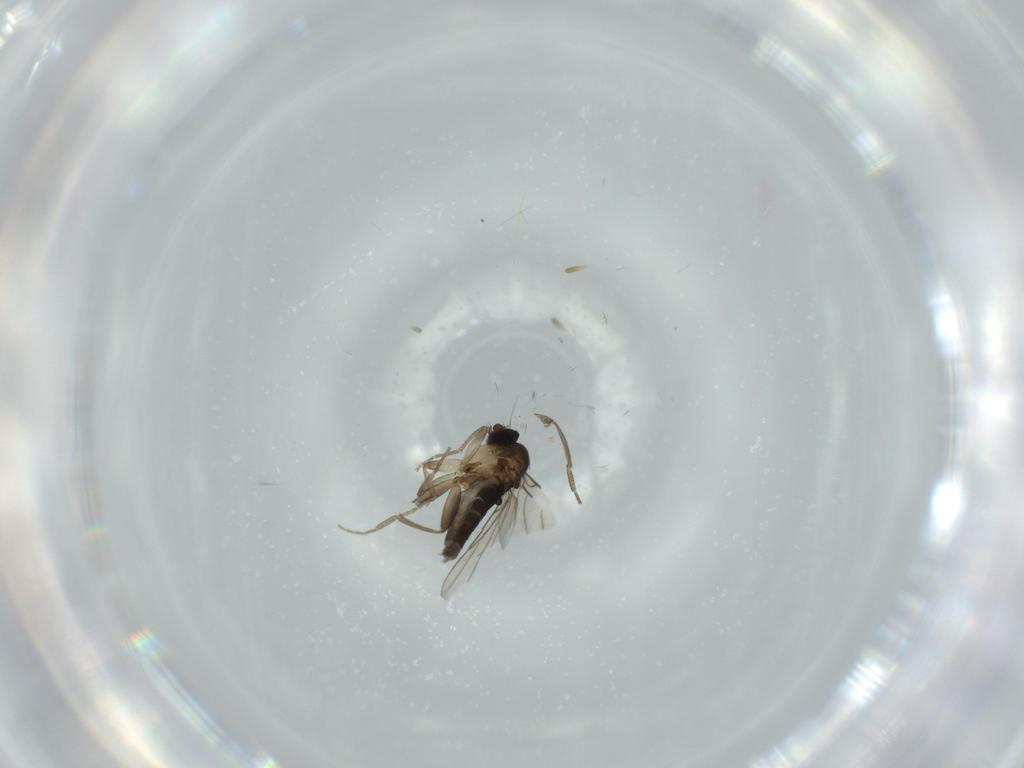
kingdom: Animalia
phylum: Arthropoda
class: Insecta
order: Diptera
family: Phoridae
